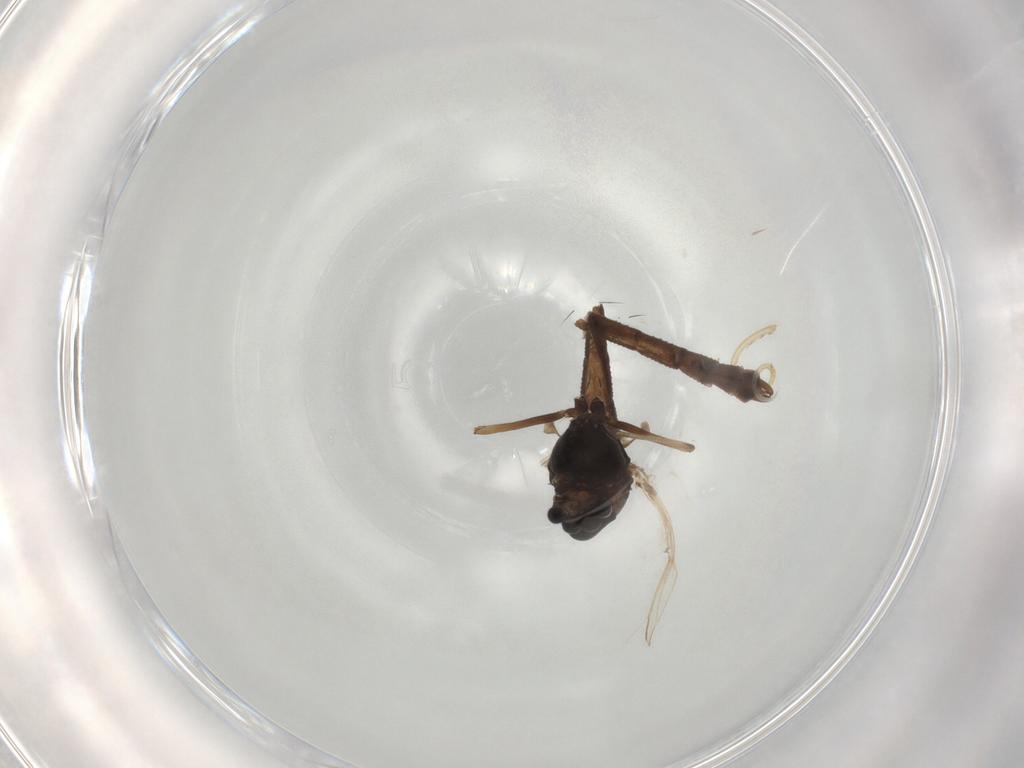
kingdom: Animalia
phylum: Arthropoda
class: Insecta
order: Diptera
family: Chironomidae
